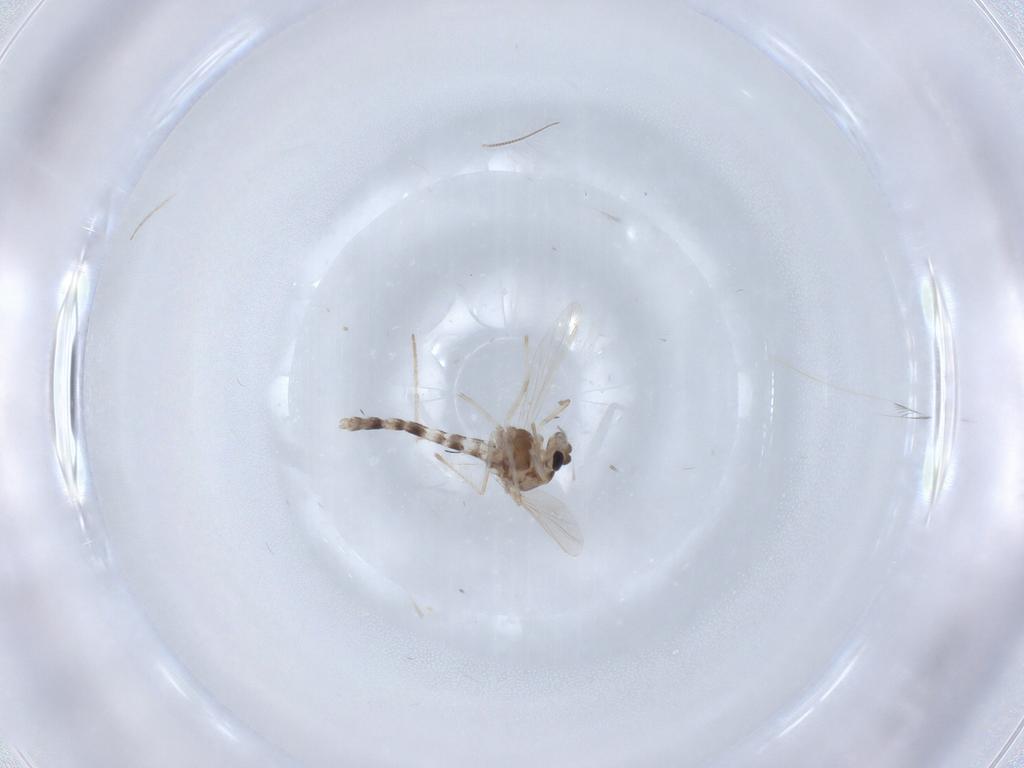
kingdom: Animalia
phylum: Arthropoda
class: Insecta
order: Diptera
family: Chironomidae
